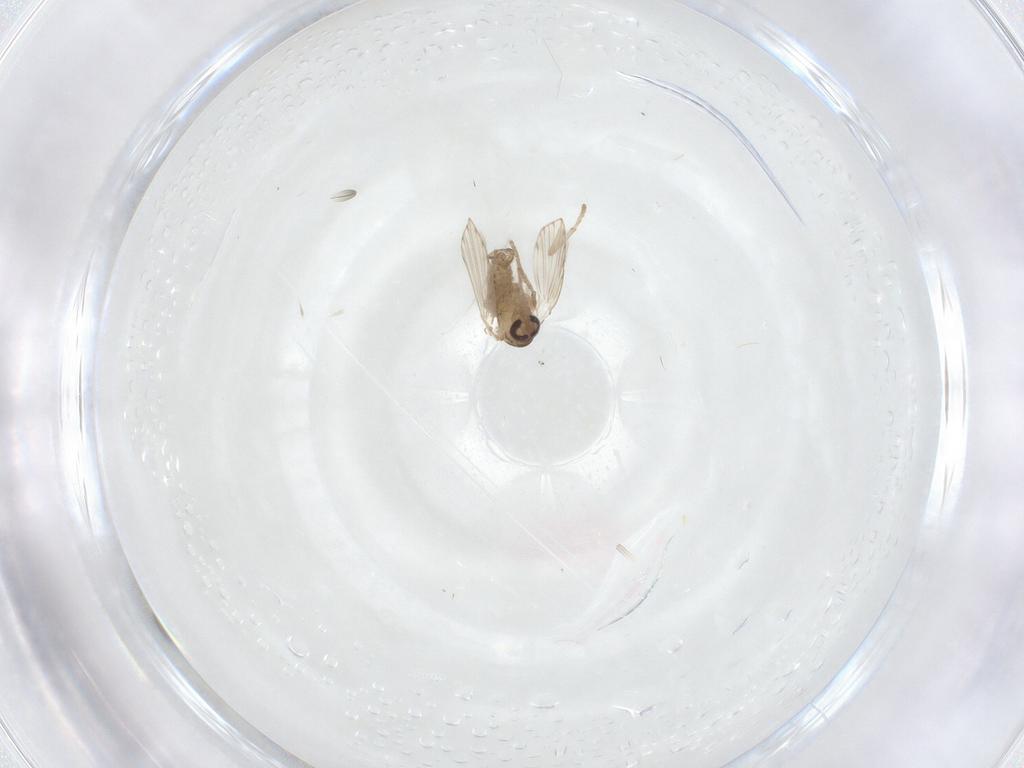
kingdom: Animalia
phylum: Arthropoda
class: Insecta
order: Diptera
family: Psychodidae
